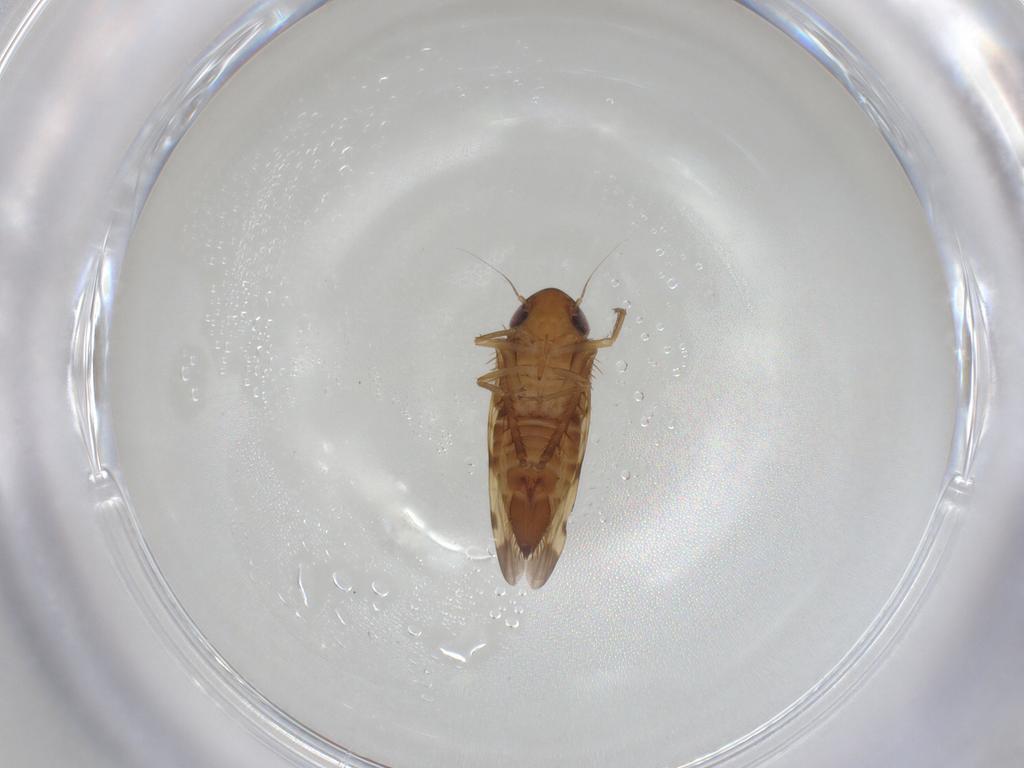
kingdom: Animalia
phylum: Arthropoda
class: Insecta
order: Hemiptera
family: Cicadellidae
